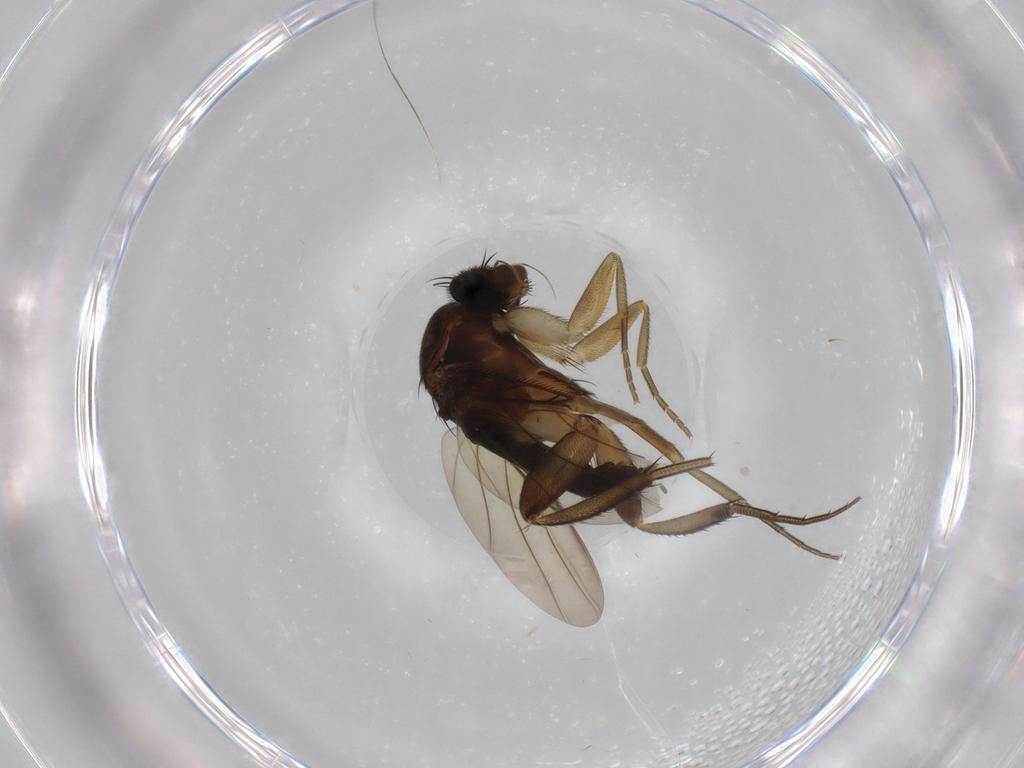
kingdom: Animalia
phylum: Arthropoda
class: Insecta
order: Diptera
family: Phoridae
